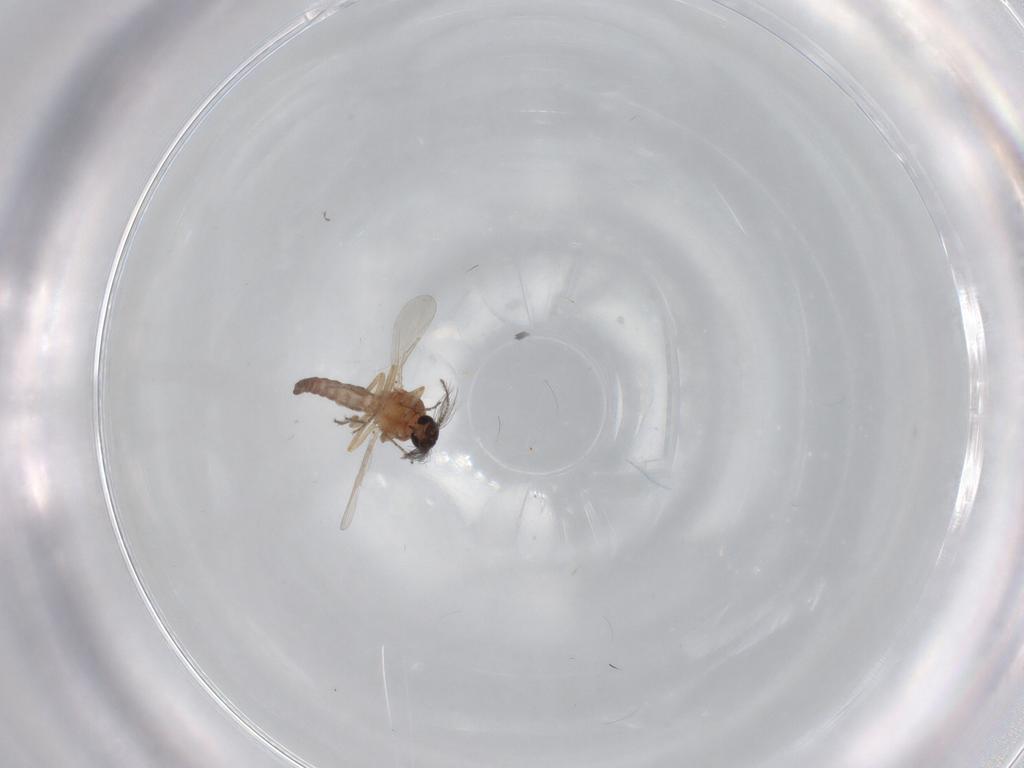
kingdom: Animalia
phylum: Arthropoda
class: Insecta
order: Diptera
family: Ceratopogonidae
